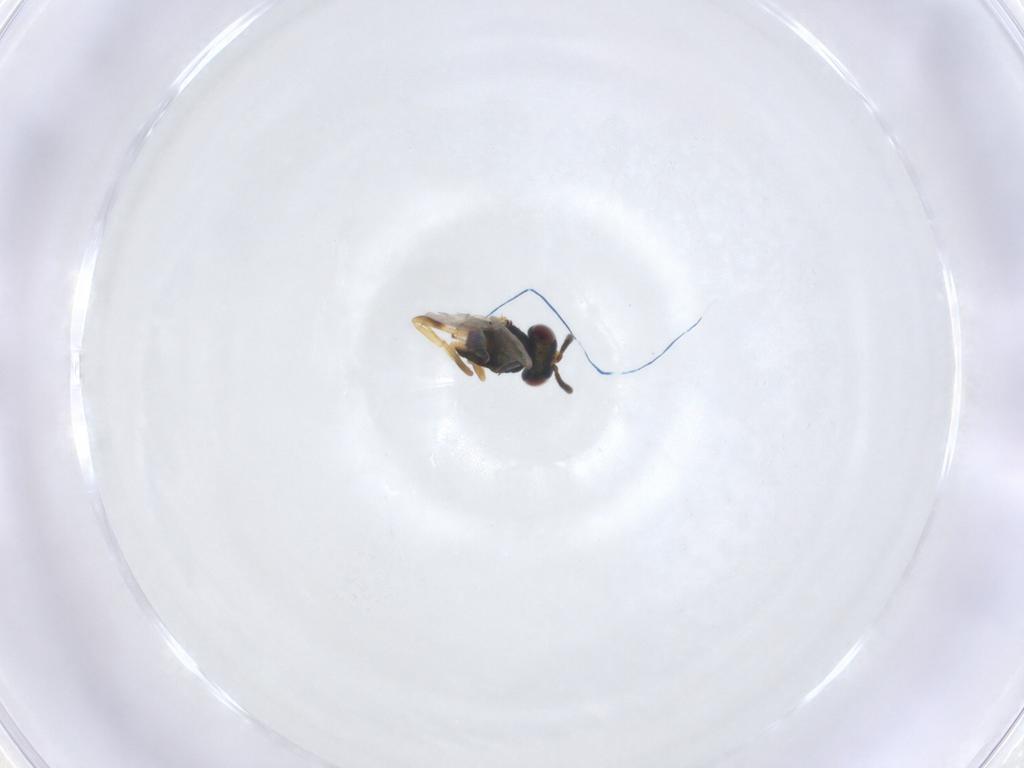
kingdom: Animalia
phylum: Arthropoda
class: Insecta
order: Hymenoptera
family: Pteromalidae
